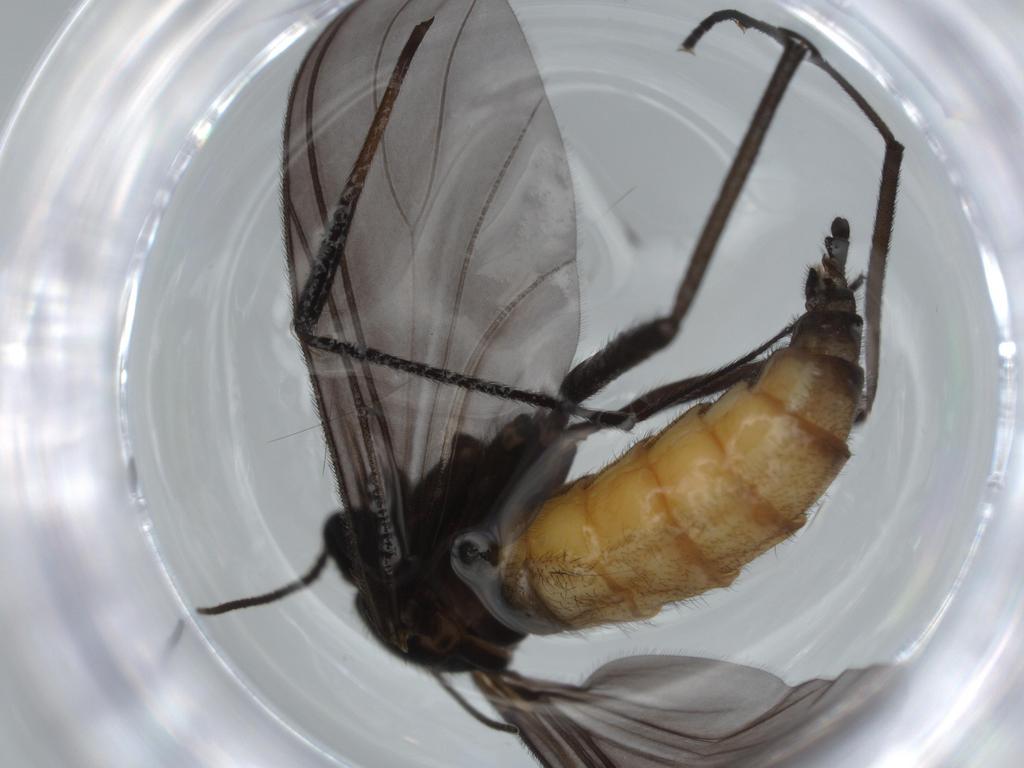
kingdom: Animalia
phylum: Arthropoda
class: Insecta
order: Diptera
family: Limoniidae
